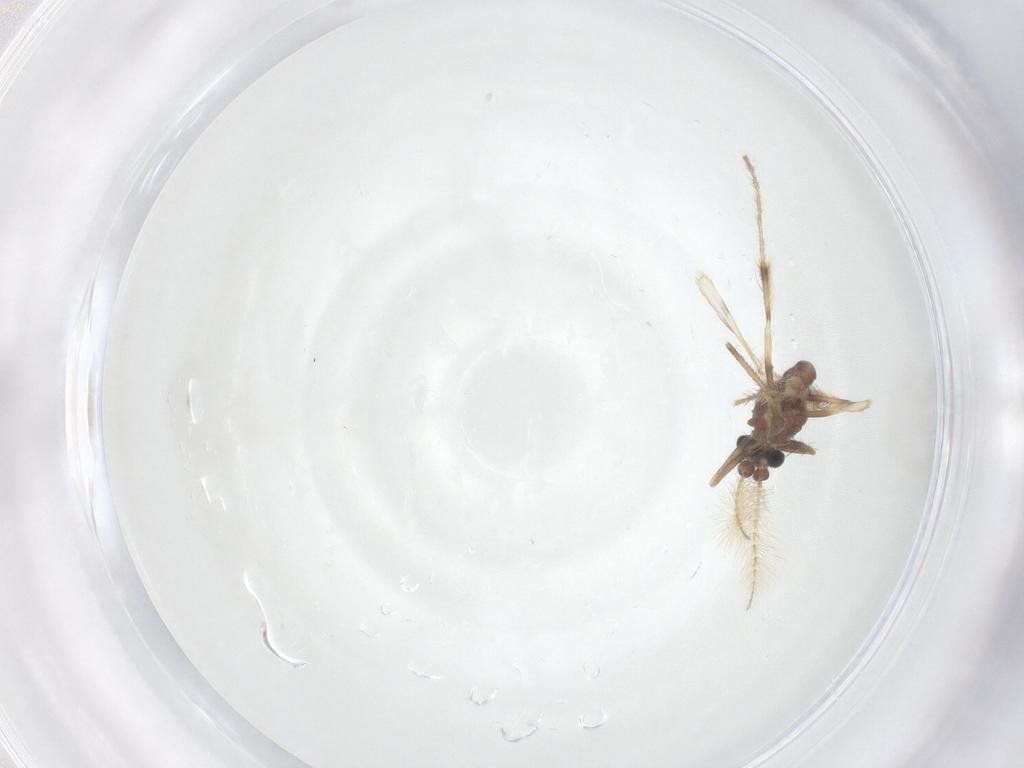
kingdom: Animalia
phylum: Arthropoda
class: Insecta
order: Diptera
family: Corethrellidae
